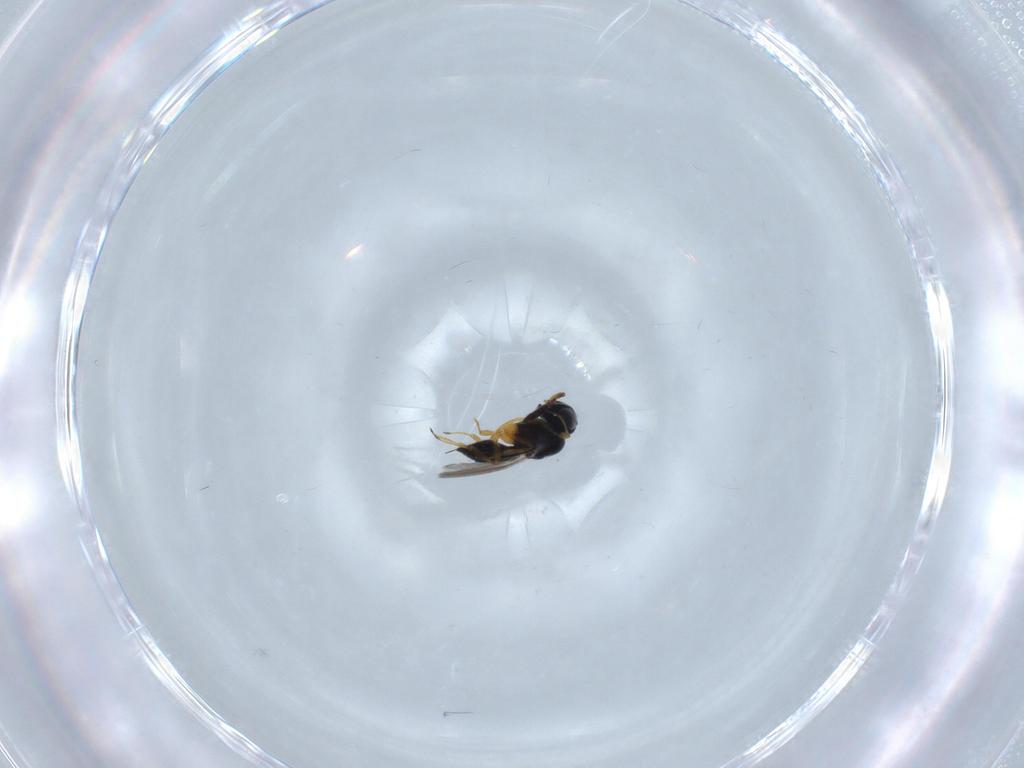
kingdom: Animalia
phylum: Arthropoda
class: Insecta
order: Hymenoptera
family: Scelionidae
